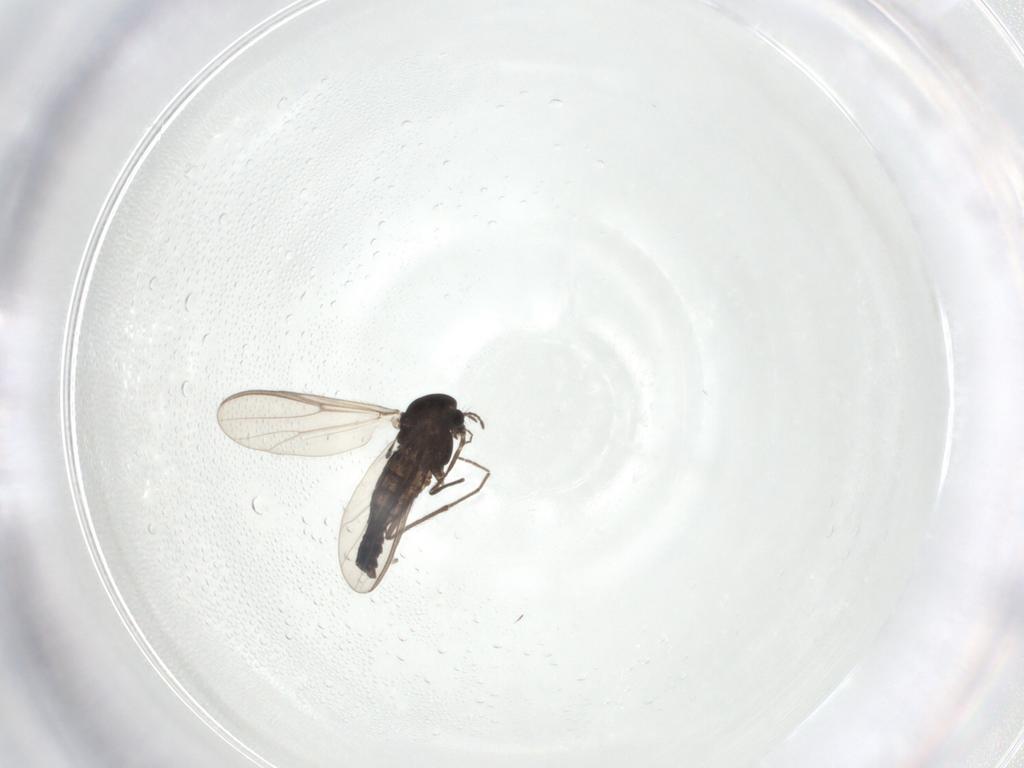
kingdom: Animalia
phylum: Arthropoda
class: Insecta
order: Diptera
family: Chironomidae
